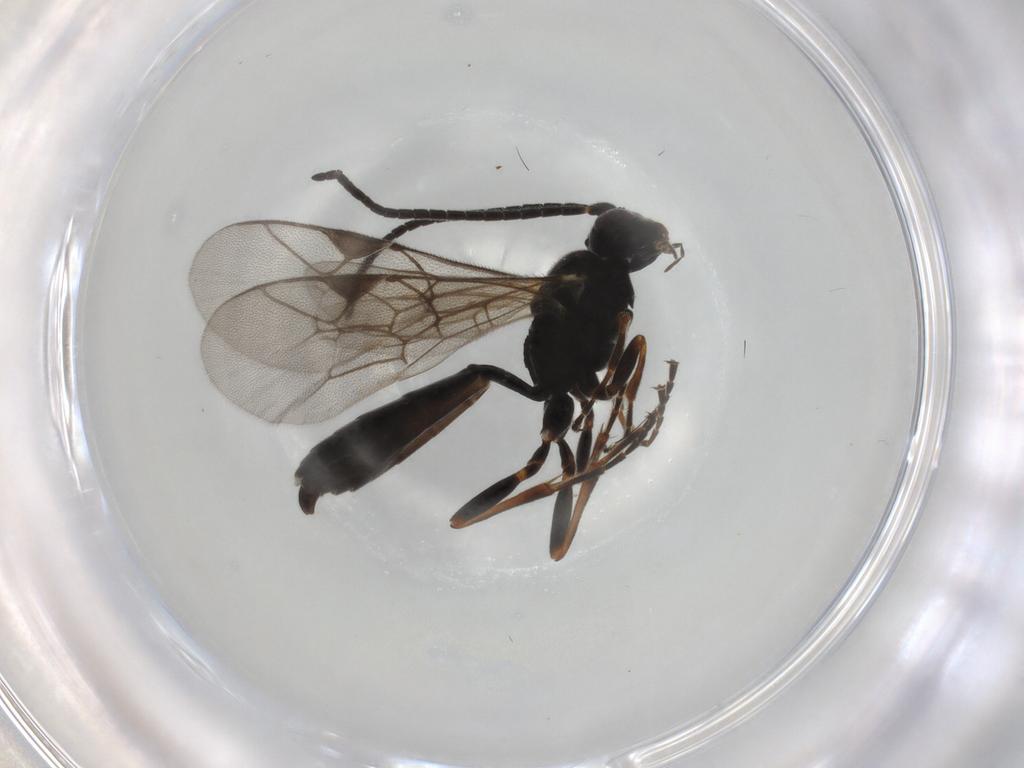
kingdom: Animalia
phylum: Arthropoda
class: Insecta
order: Hymenoptera
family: Ichneumonidae
